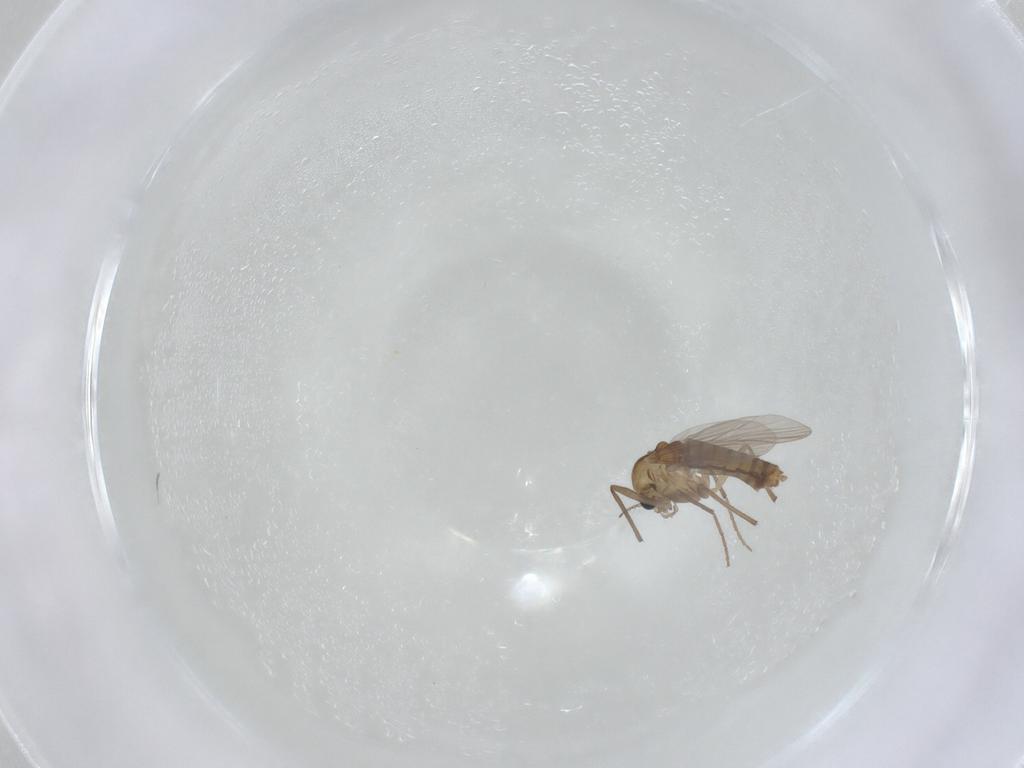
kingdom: Animalia
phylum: Arthropoda
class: Insecta
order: Diptera
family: Chironomidae
